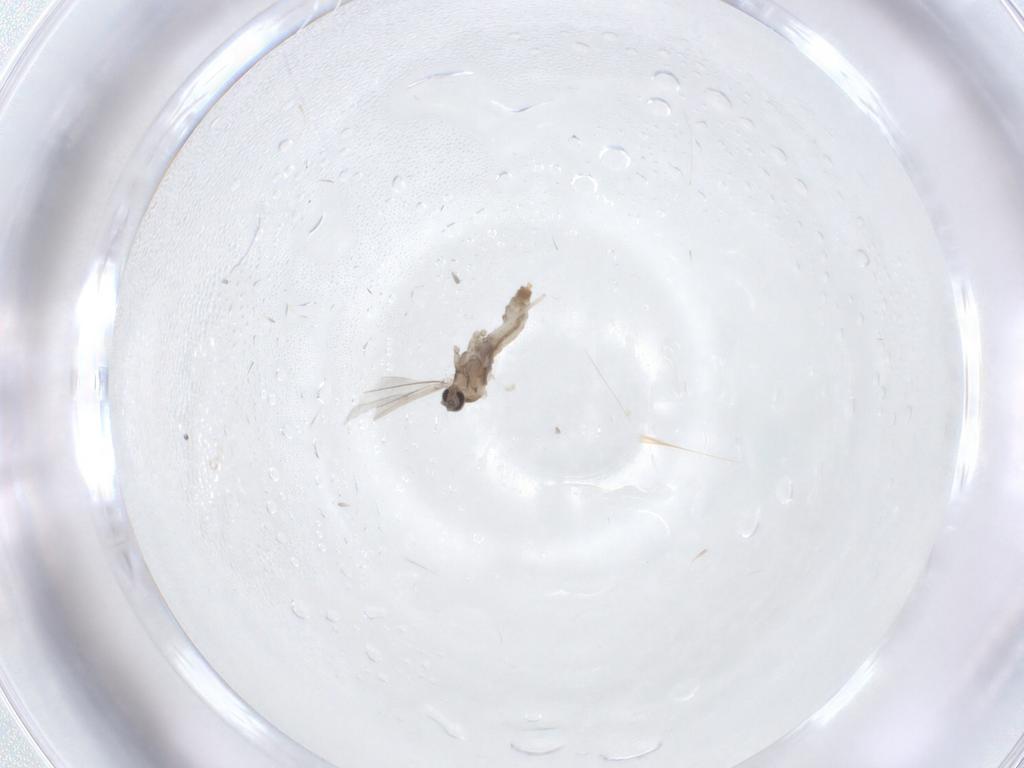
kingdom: Animalia
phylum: Arthropoda
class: Insecta
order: Diptera
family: Cecidomyiidae
